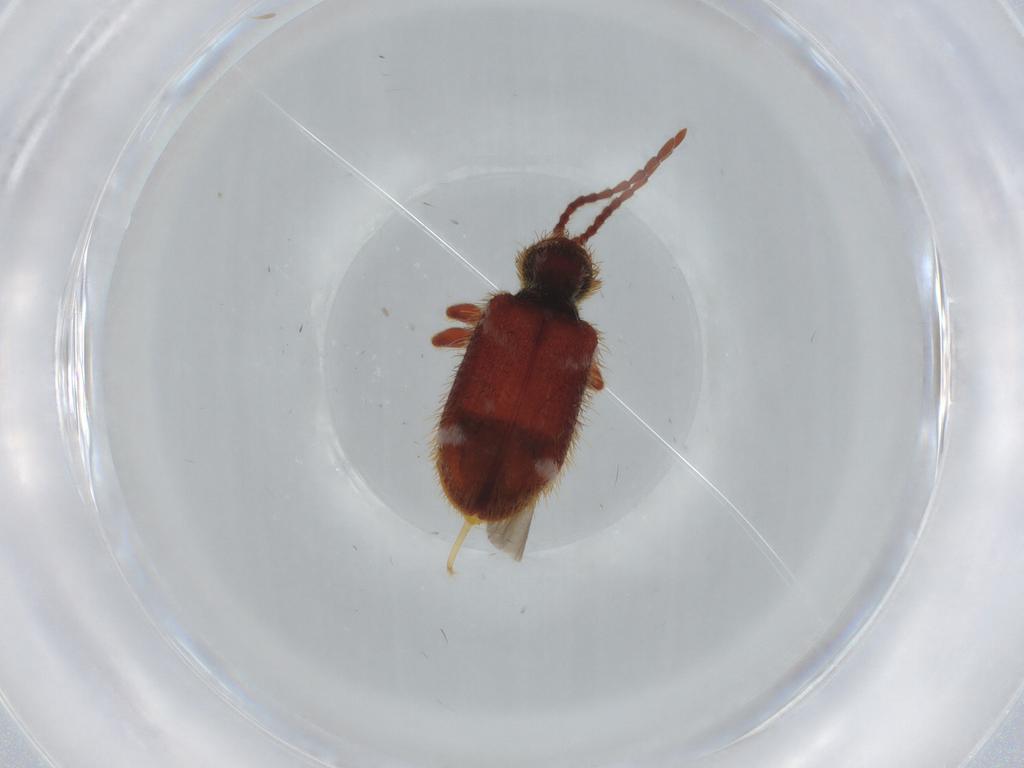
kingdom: Animalia
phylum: Arthropoda
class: Insecta
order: Coleoptera
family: Ptinidae
